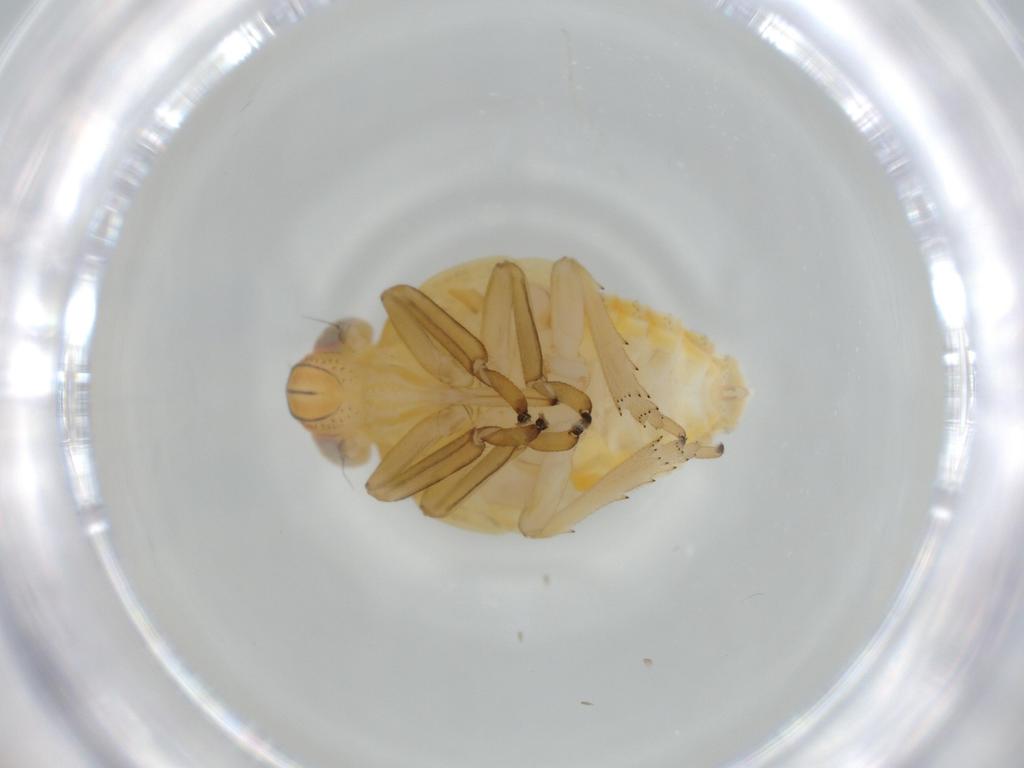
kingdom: Animalia
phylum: Arthropoda
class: Insecta
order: Hemiptera
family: Issidae
